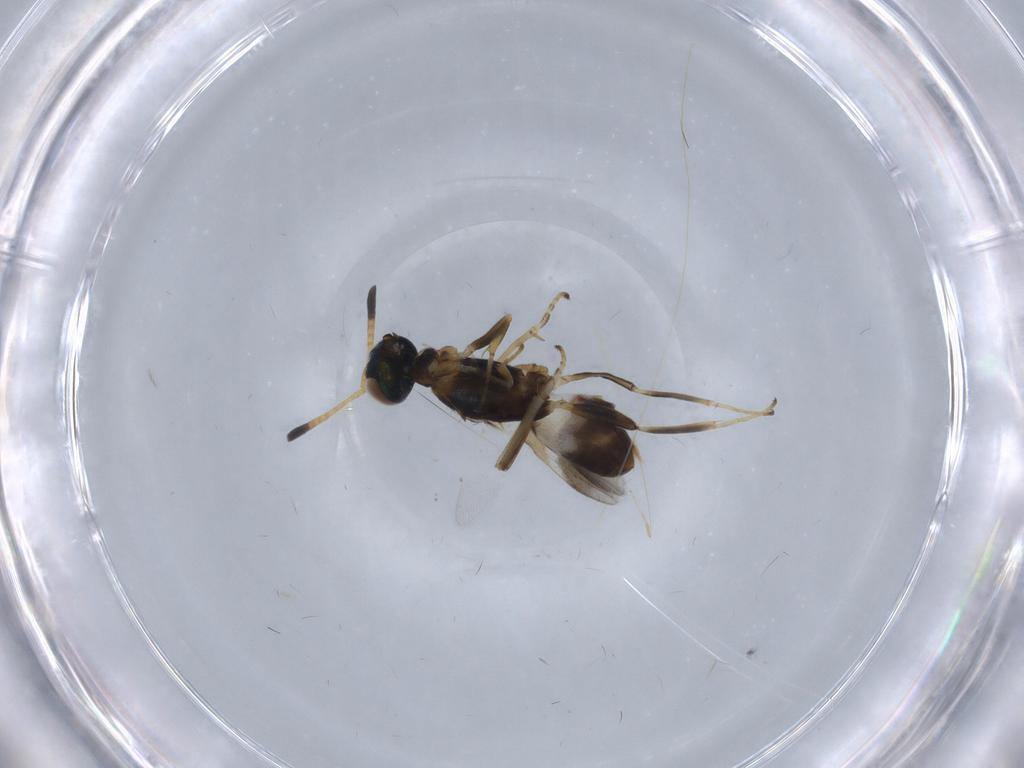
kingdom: Animalia
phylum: Arthropoda
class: Insecta
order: Hymenoptera
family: Eupelmidae
